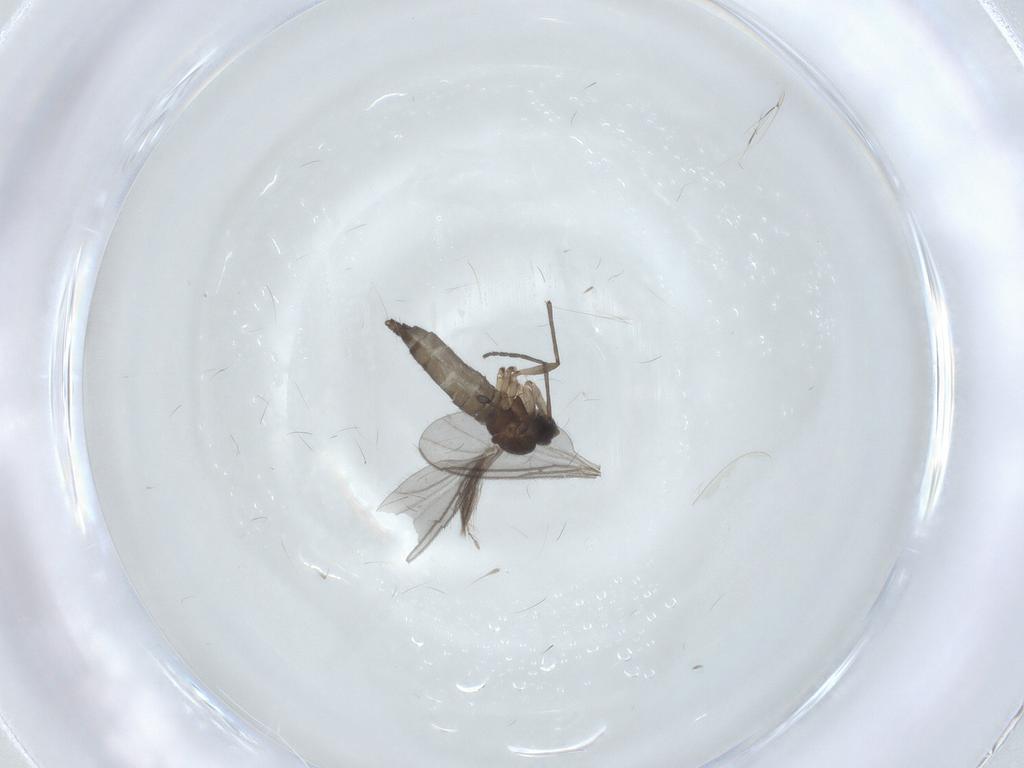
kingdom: Animalia
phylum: Arthropoda
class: Insecta
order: Diptera
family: Ceratopogonidae
